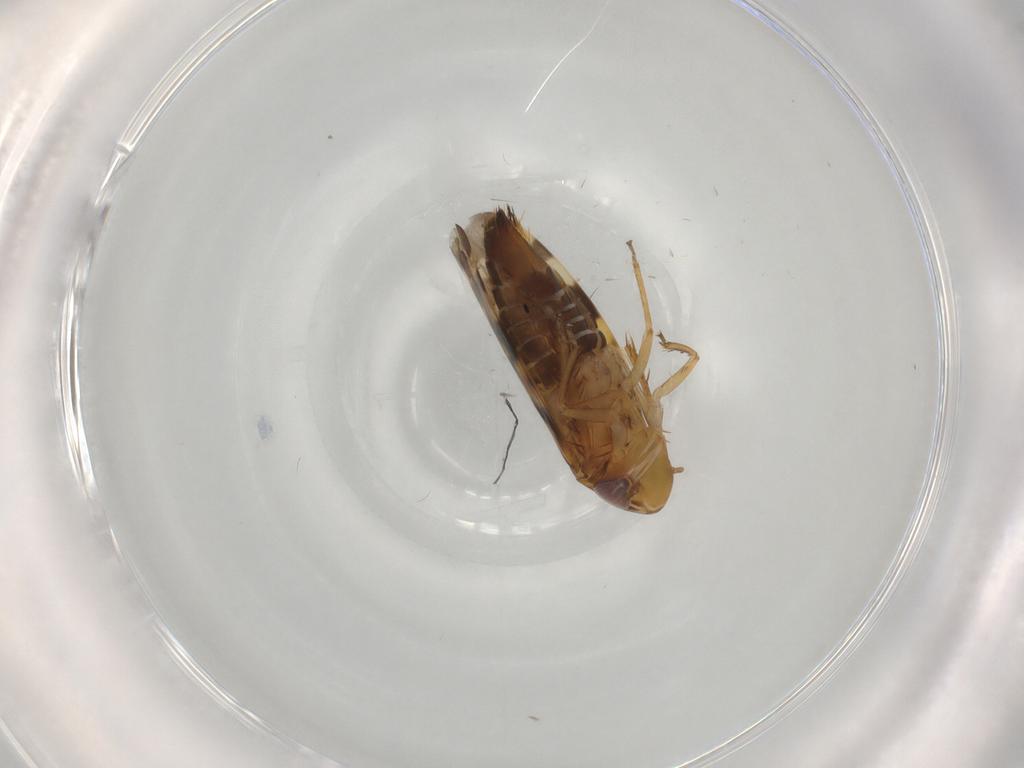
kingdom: Animalia
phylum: Arthropoda
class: Insecta
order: Hemiptera
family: Cicadellidae
